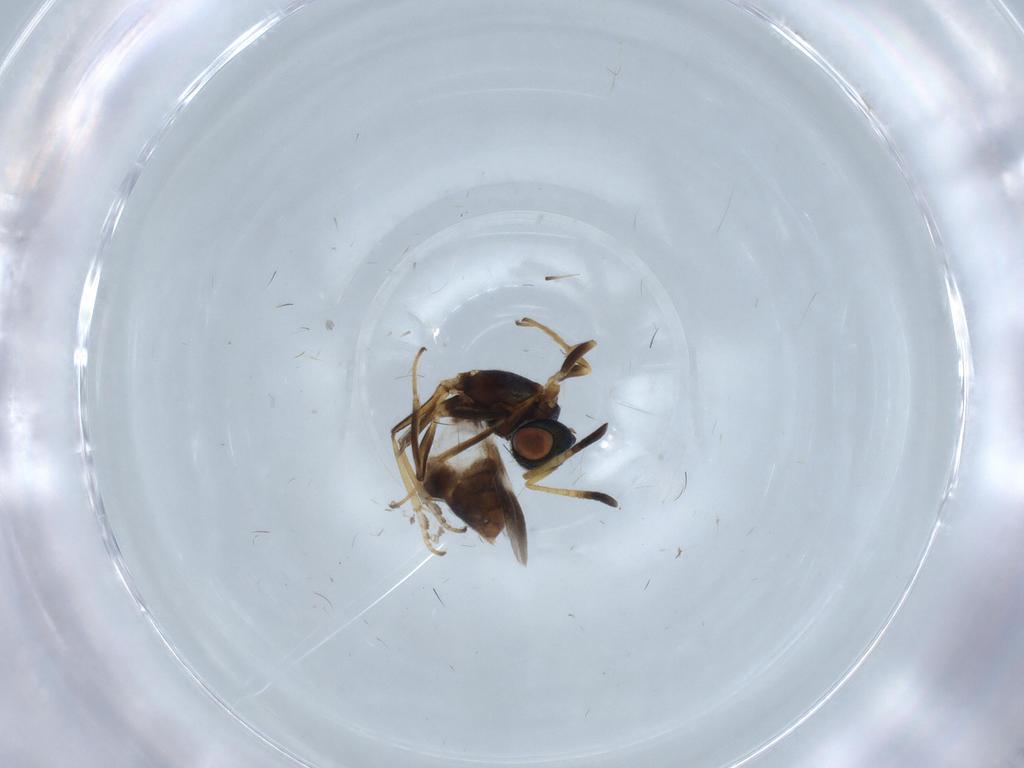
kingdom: Animalia
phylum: Arthropoda
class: Insecta
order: Hymenoptera
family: Eupelmidae
